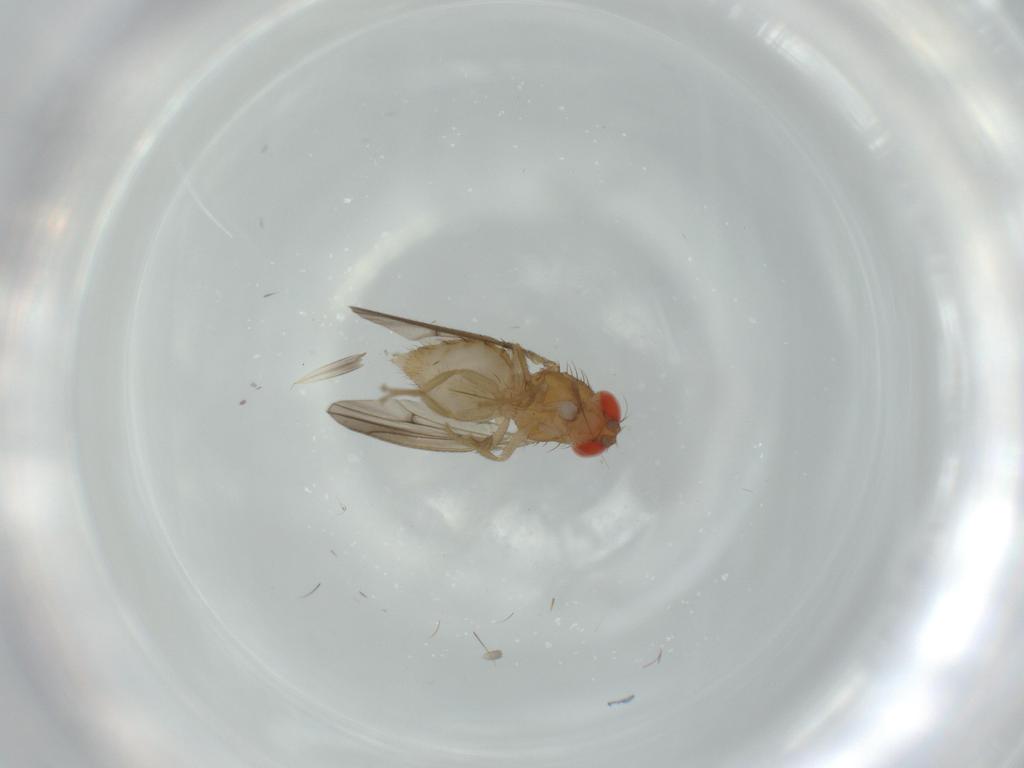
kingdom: Animalia
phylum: Arthropoda
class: Insecta
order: Diptera
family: Drosophilidae
